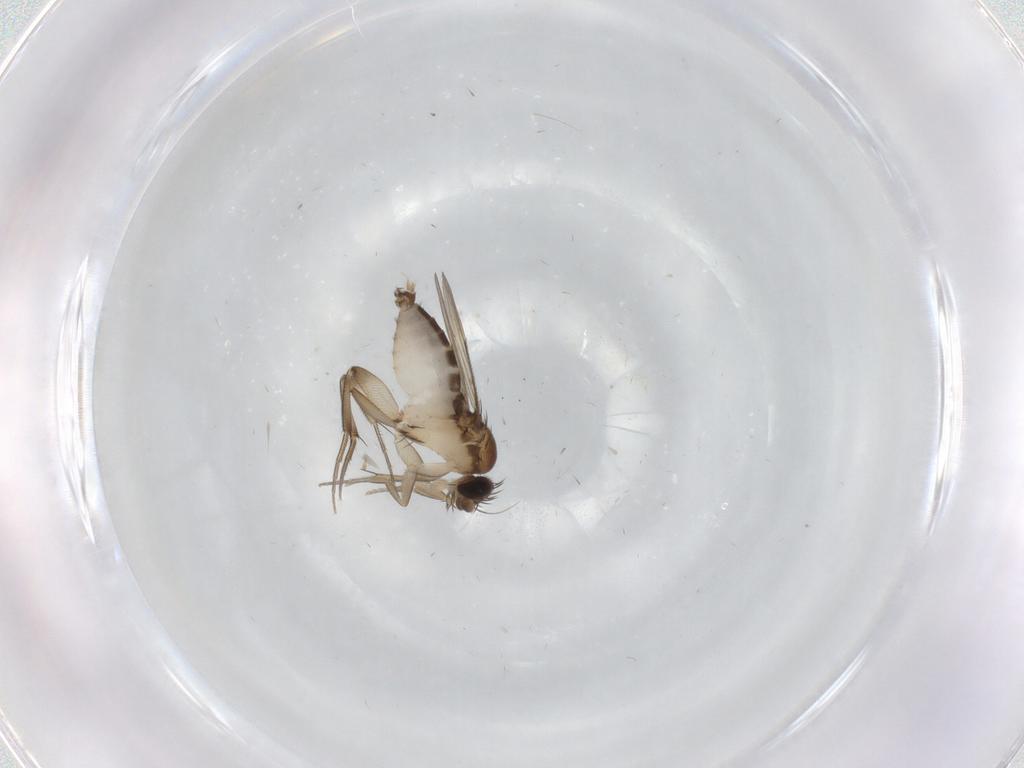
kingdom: Animalia
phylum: Arthropoda
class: Insecta
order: Diptera
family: Phoridae
